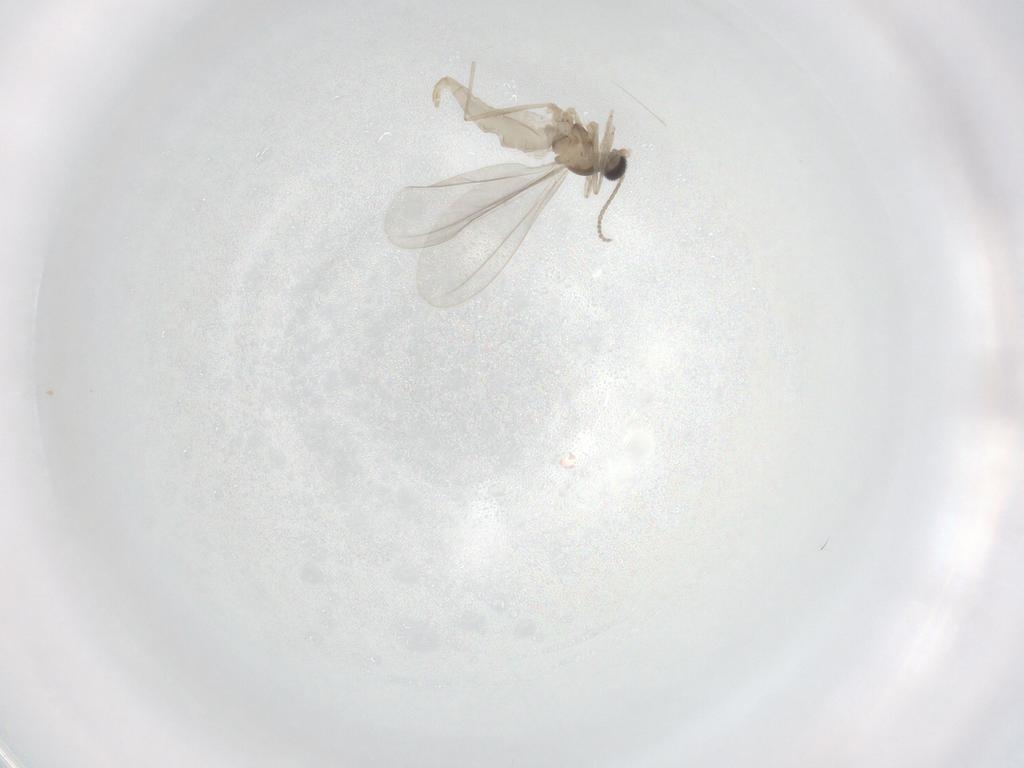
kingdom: Animalia
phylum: Arthropoda
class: Insecta
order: Diptera
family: Cecidomyiidae
